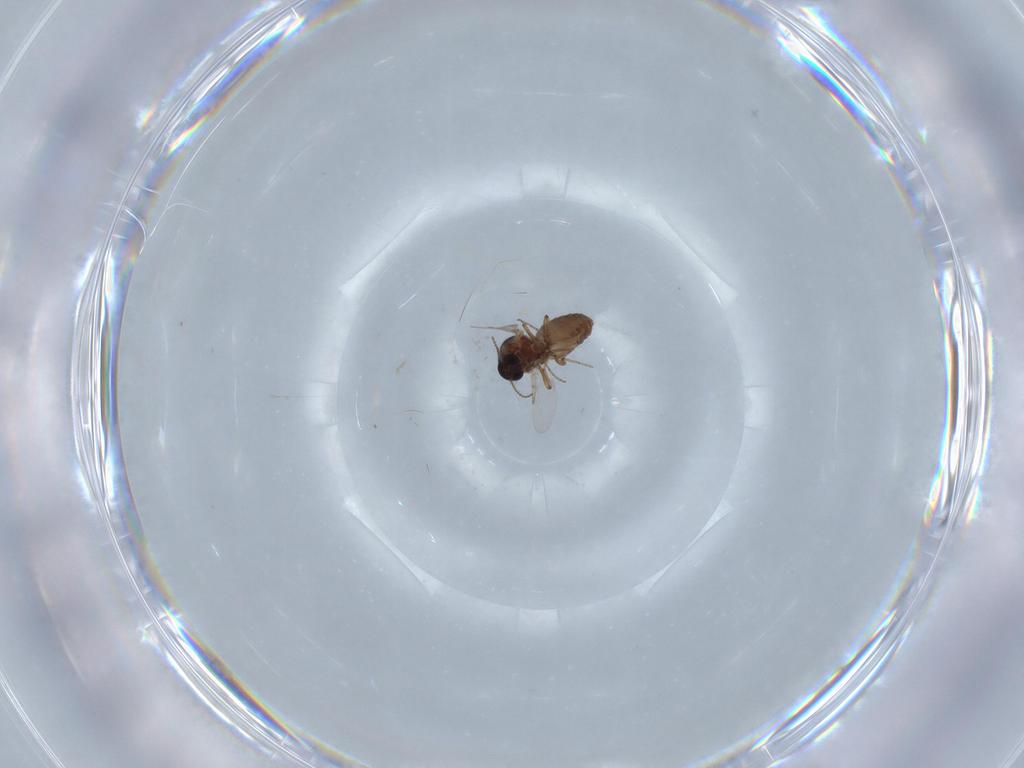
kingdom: Animalia
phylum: Arthropoda
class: Insecta
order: Diptera
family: Ceratopogonidae
